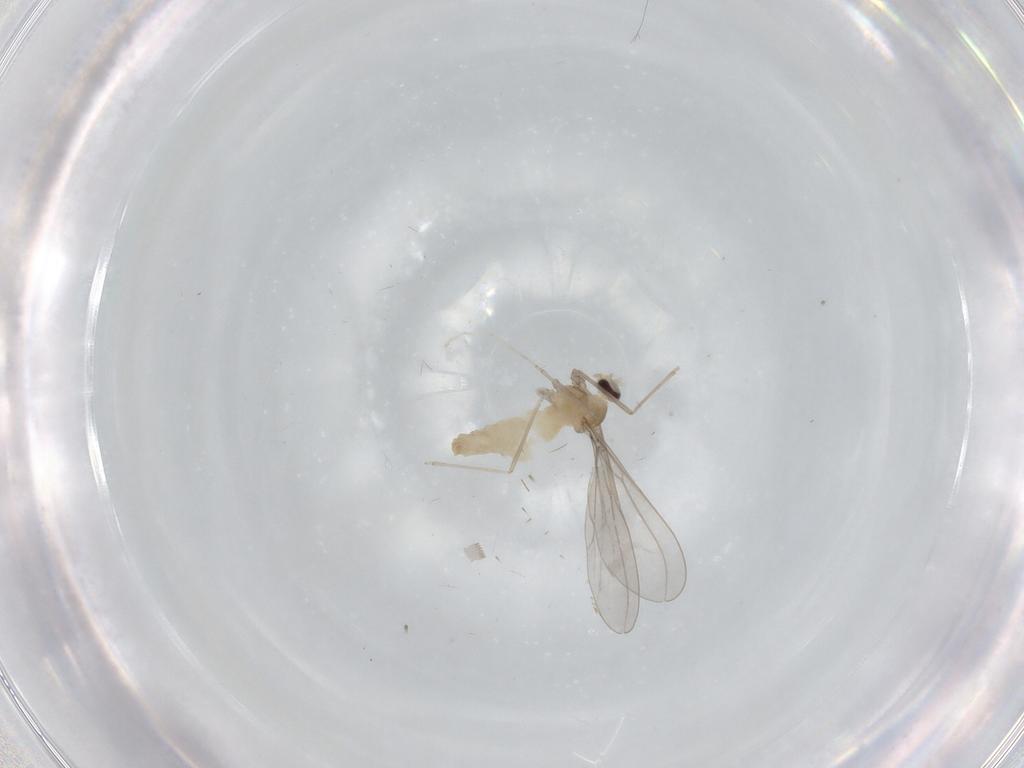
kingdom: Animalia
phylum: Arthropoda
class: Insecta
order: Diptera
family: Cecidomyiidae
